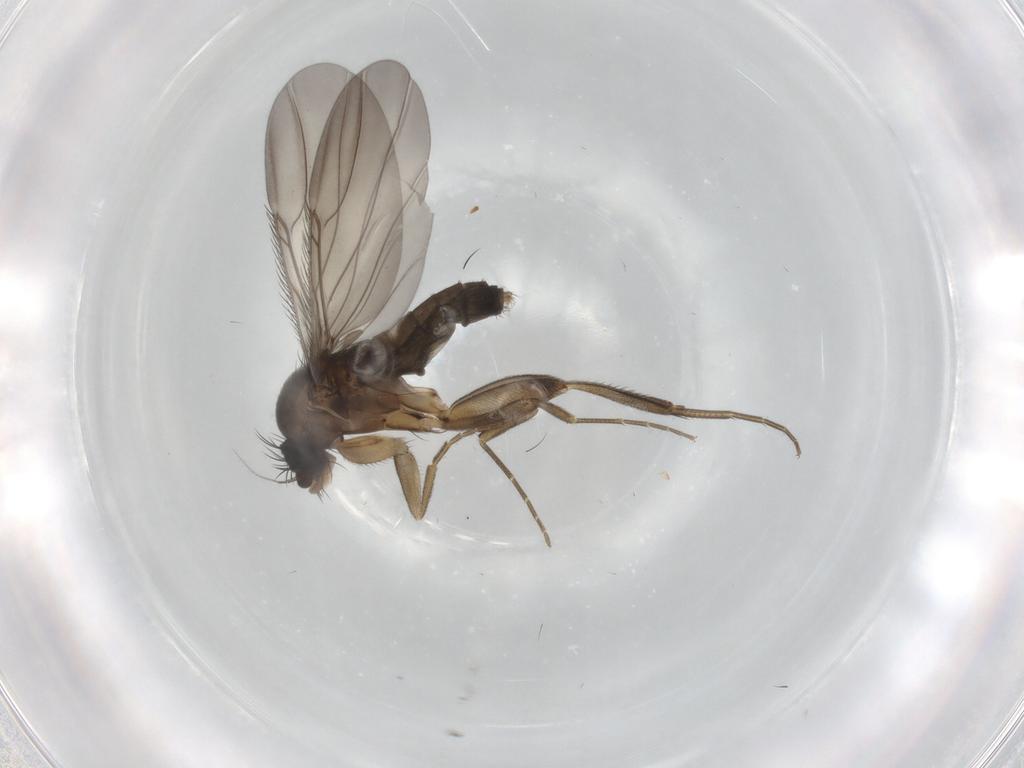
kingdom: Animalia
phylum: Arthropoda
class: Insecta
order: Diptera
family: Phoridae
